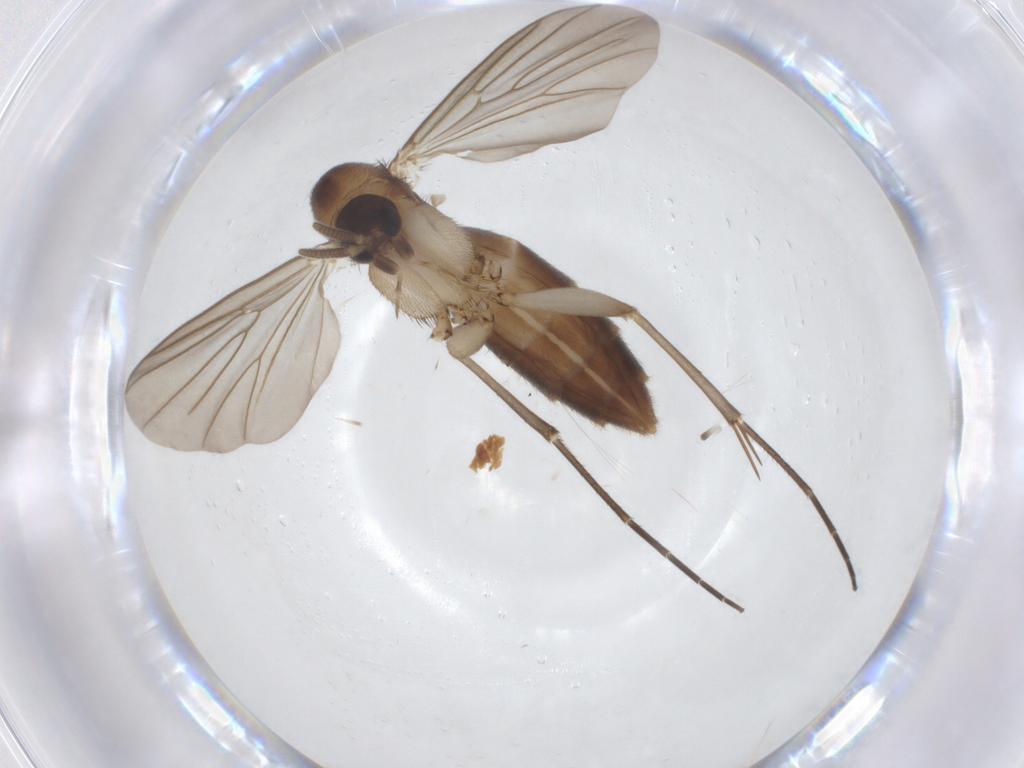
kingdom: Animalia
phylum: Arthropoda
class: Insecta
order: Diptera
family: Mycetophilidae
